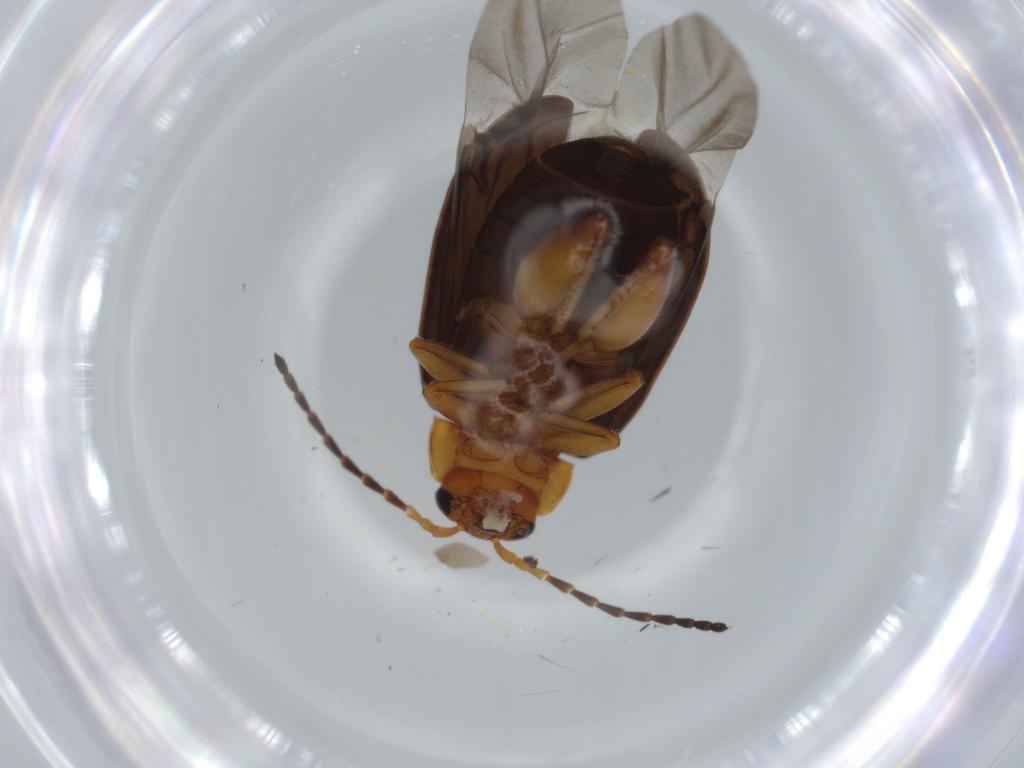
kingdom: Animalia
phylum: Arthropoda
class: Insecta
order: Coleoptera
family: Chrysomelidae
